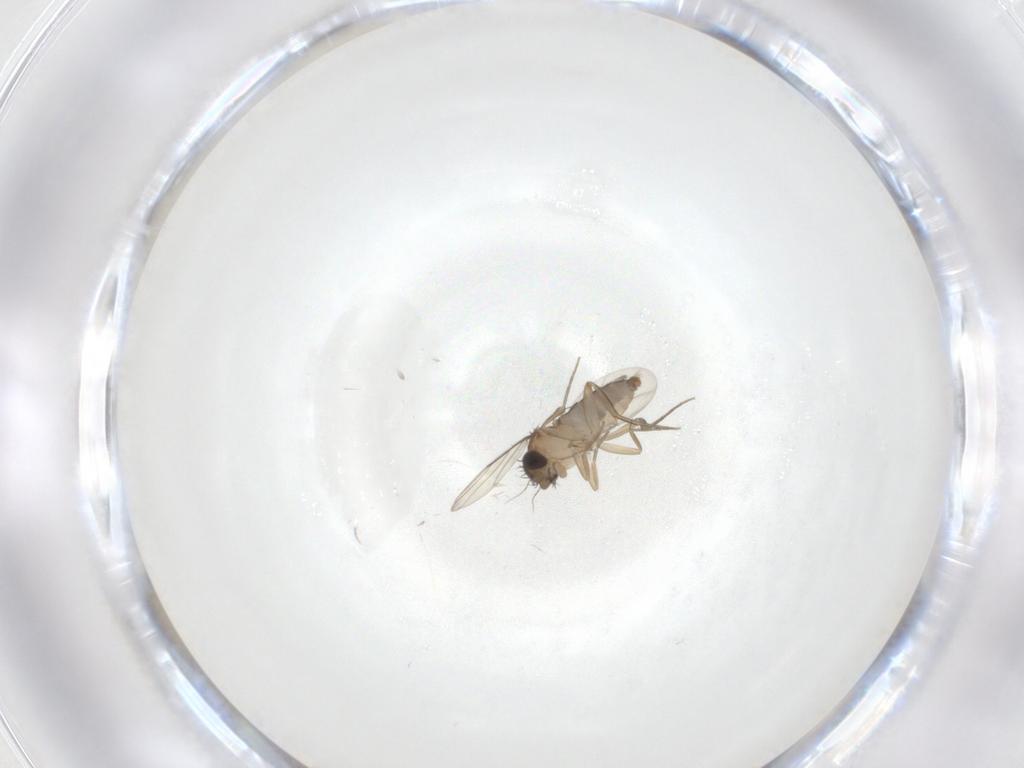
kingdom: Animalia
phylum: Arthropoda
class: Insecta
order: Diptera
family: Phoridae
